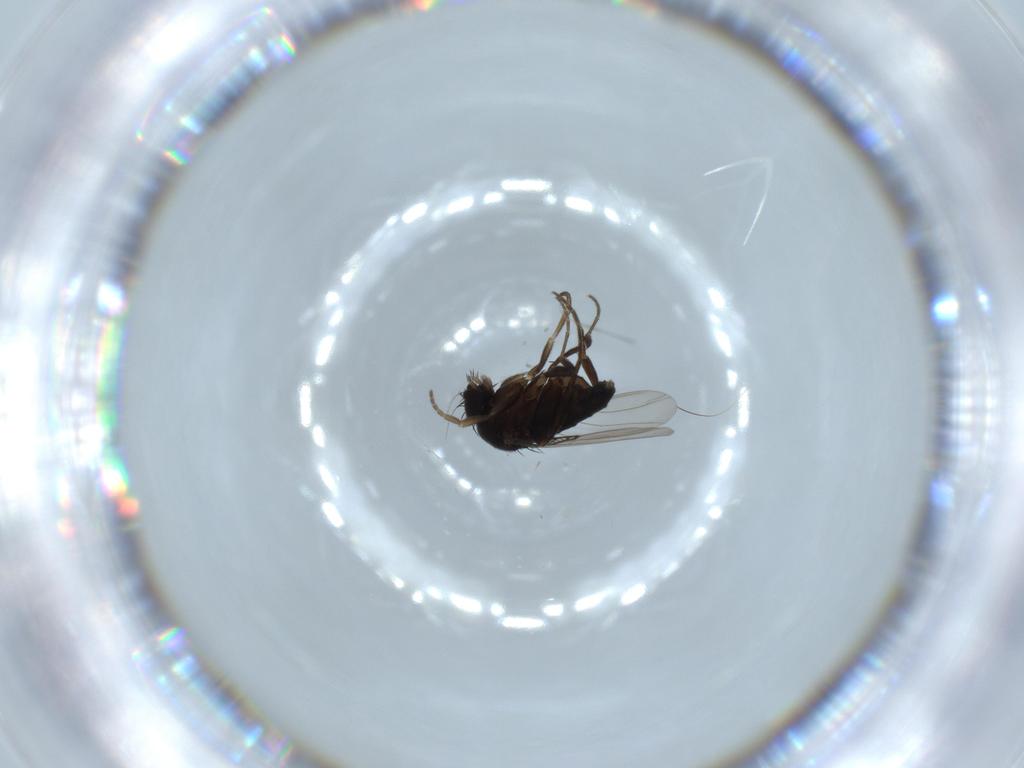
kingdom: Animalia
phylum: Arthropoda
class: Insecta
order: Diptera
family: Phoridae
